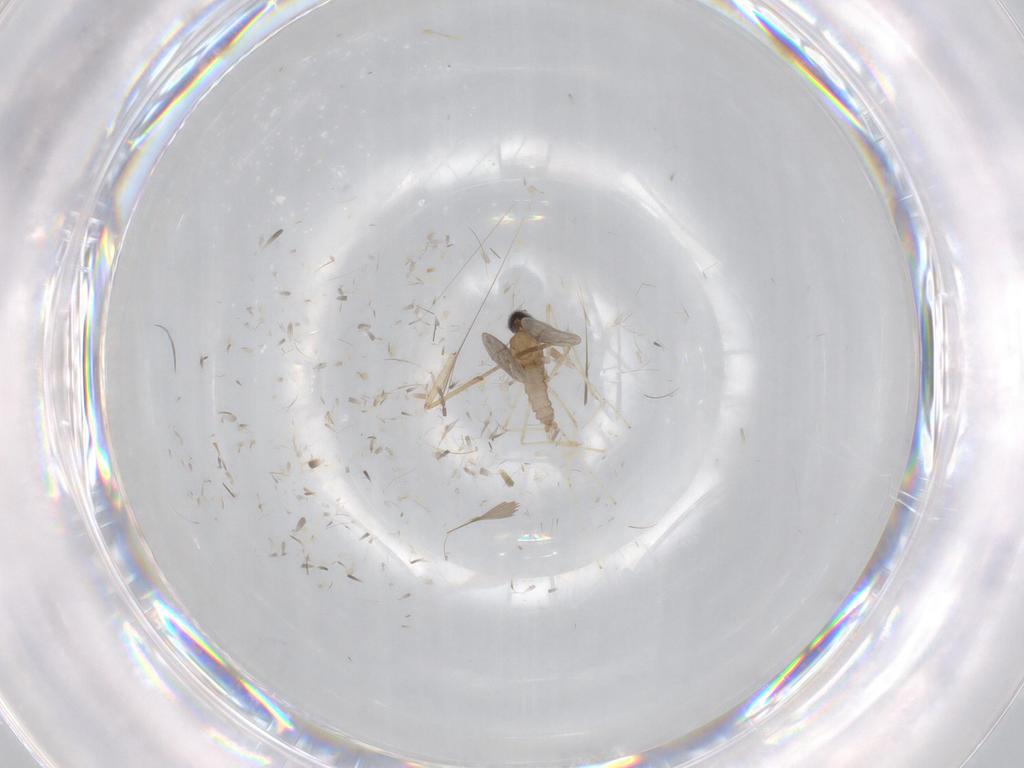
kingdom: Animalia
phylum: Arthropoda
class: Insecta
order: Diptera
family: Cecidomyiidae
